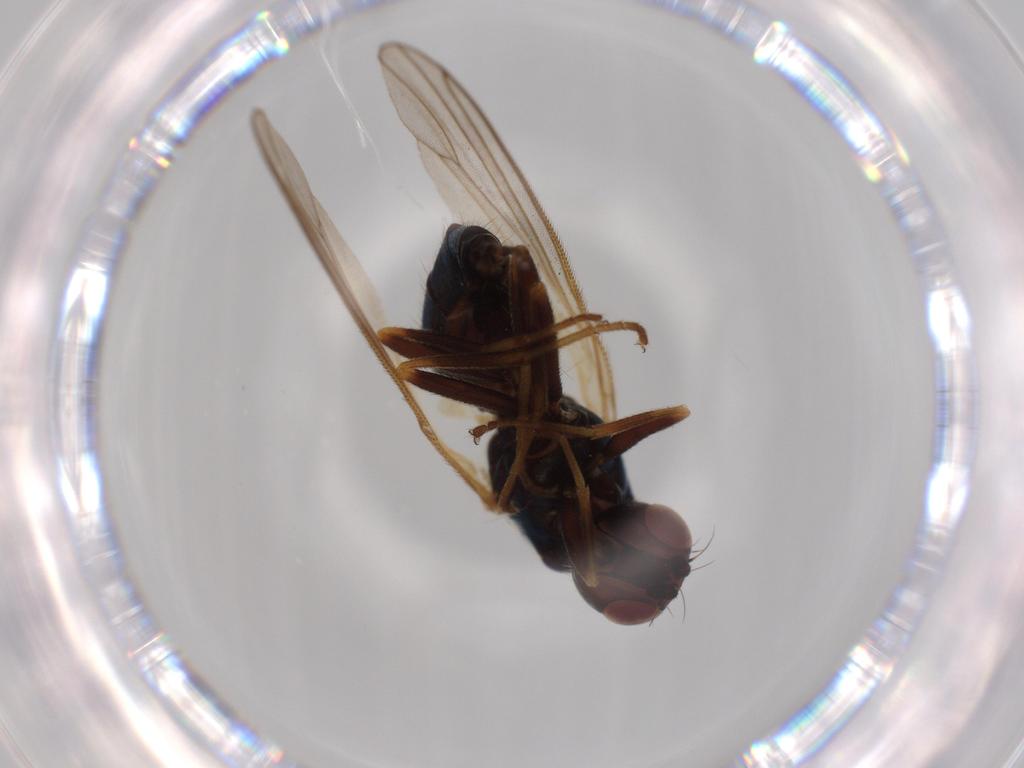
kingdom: Animalia
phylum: Arthropoda
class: Insecta
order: Diptera
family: Psilidae
